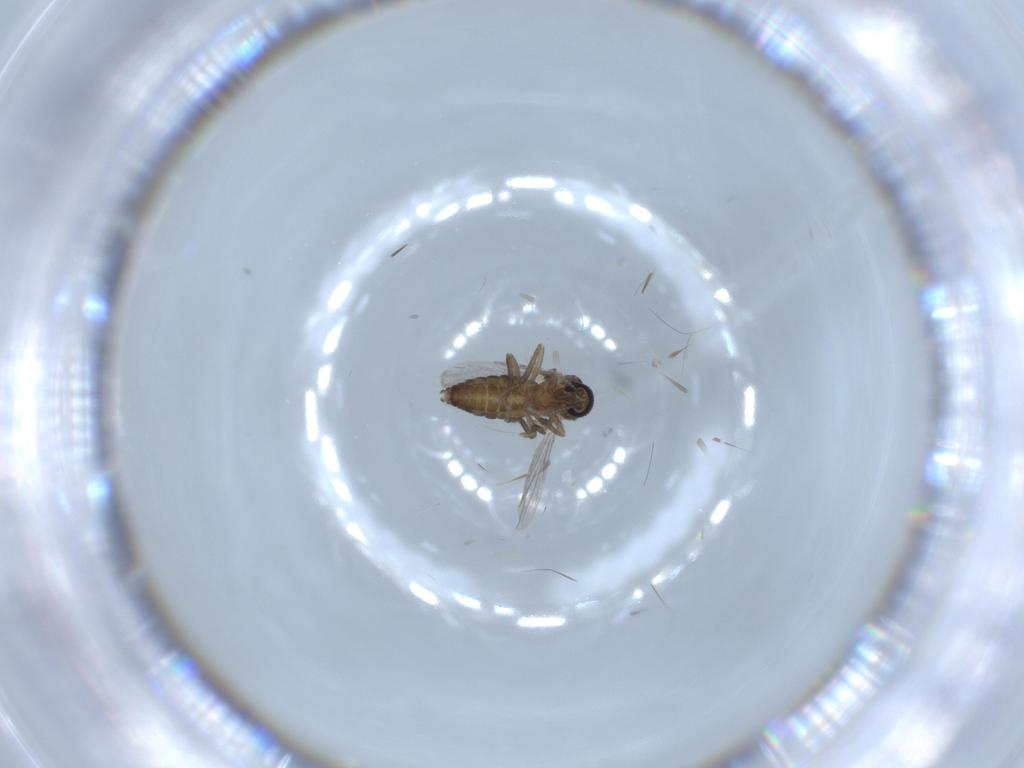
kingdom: Animalia
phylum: Arthropoda
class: Insecta
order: Diptera
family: Ceratopogonidae
